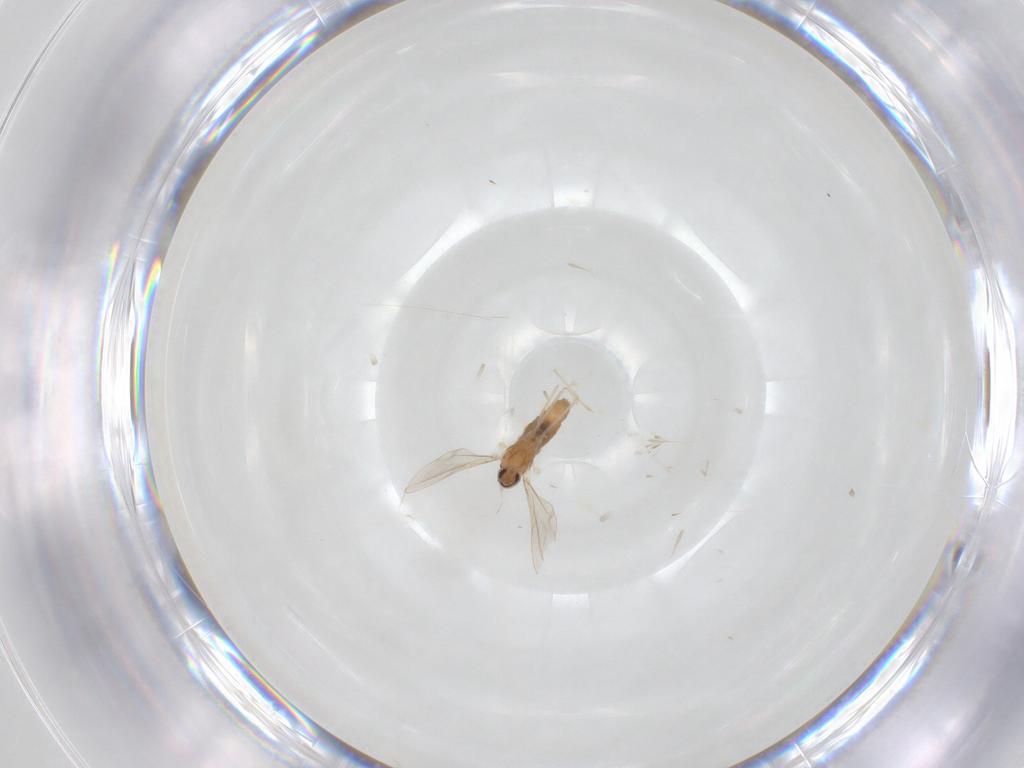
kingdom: Animalia
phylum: Arthropoda
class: Insecta
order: Diptera
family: Cecidomyiidae
